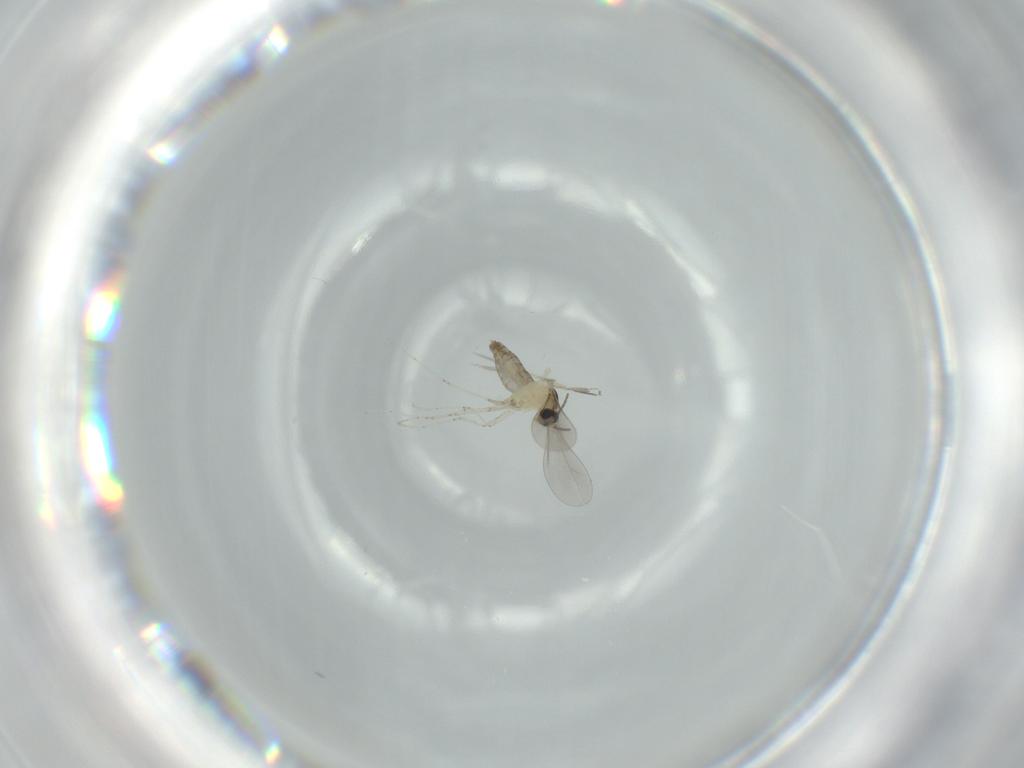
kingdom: Animalia
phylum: Arthropoda
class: Insecta
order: Diptera
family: Cecidomyiidae
